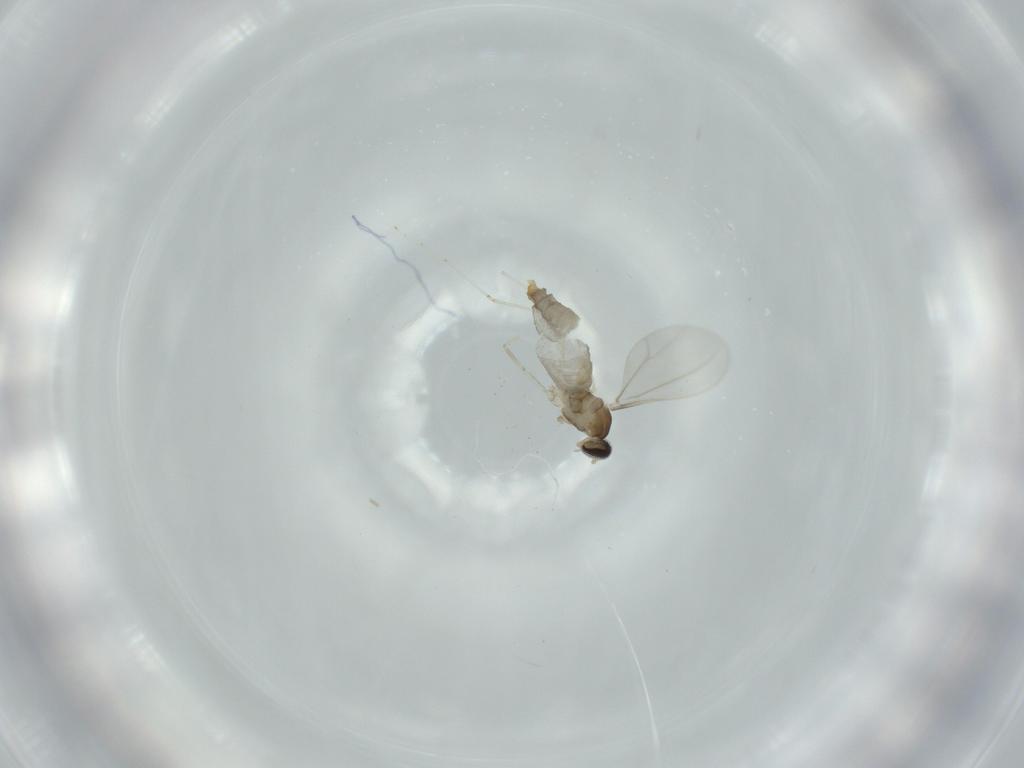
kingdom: Animalia
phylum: Arthropoda
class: Insecta
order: Diptera
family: Cecidomyiidae
